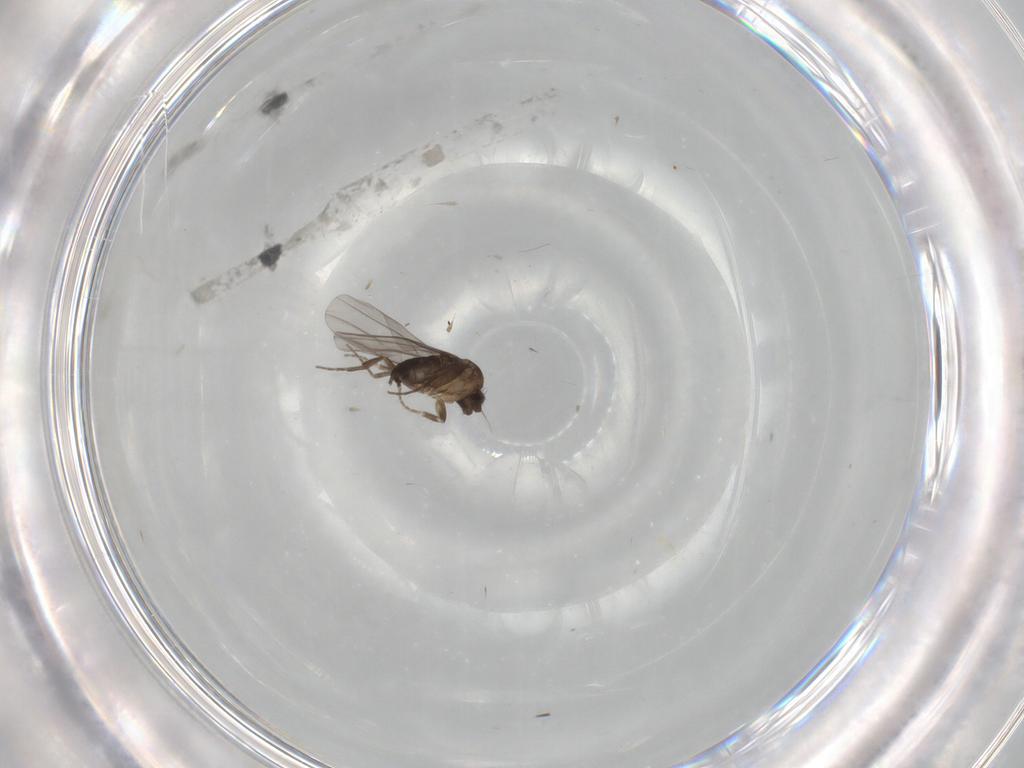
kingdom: Animalia
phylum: Arthropoda
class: Insecta
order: Diptera
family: Phoridae
